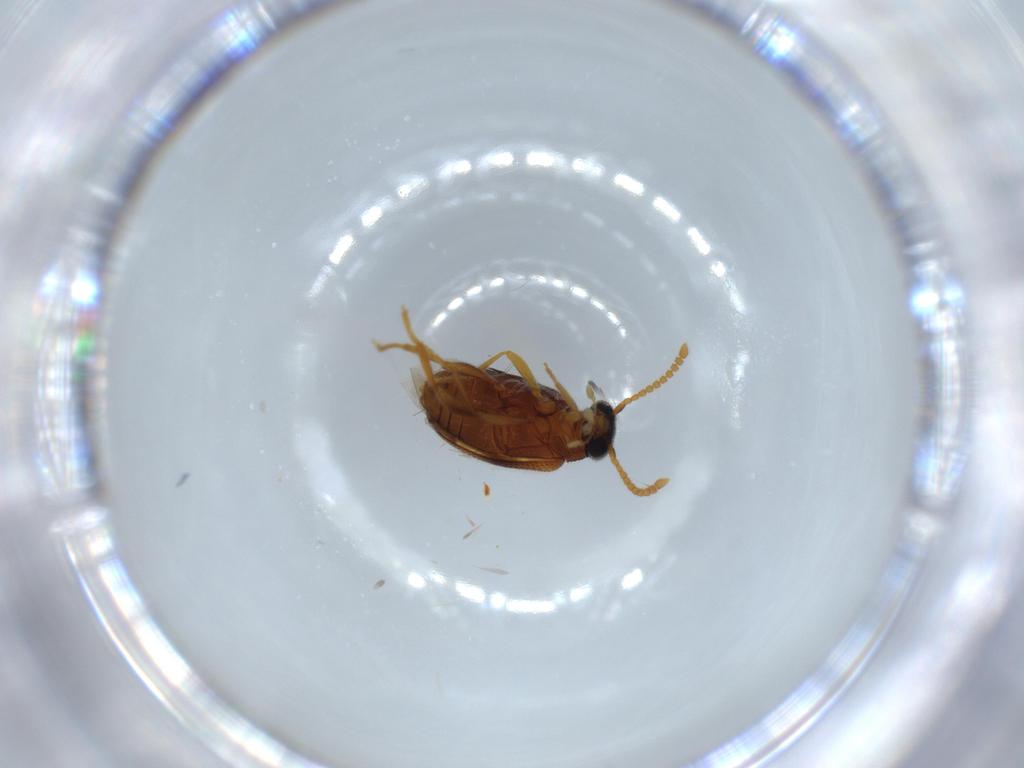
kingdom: Animalia
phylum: Arthropoda
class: Insecta
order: Coleoptera
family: Aderidae
